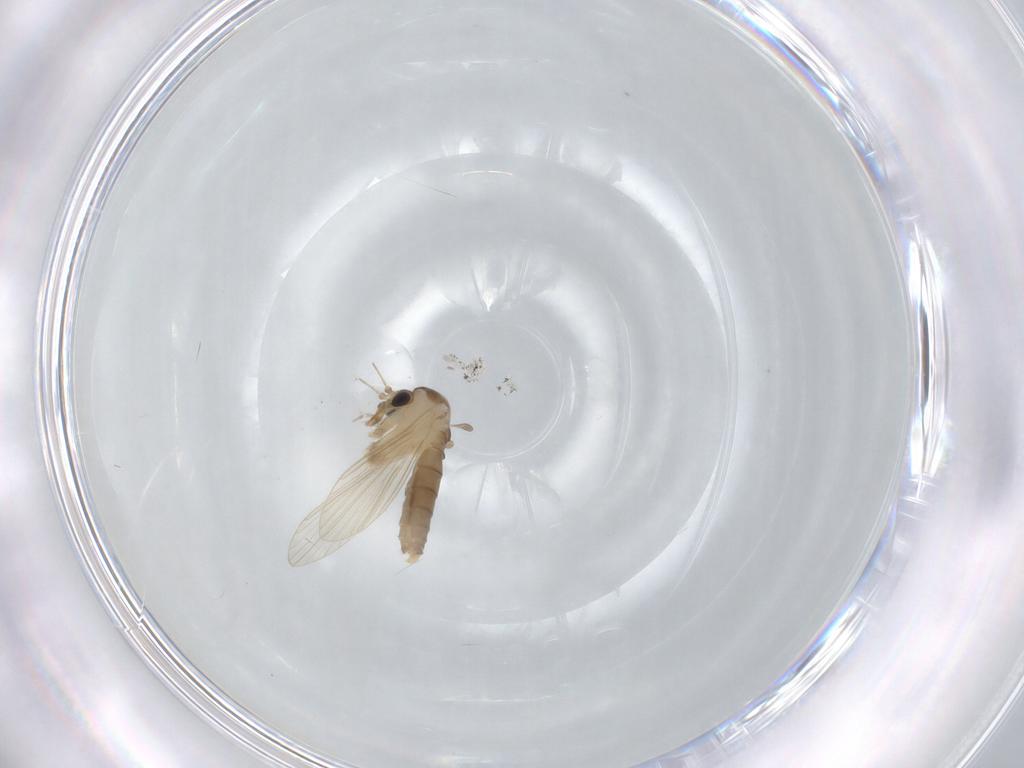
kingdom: Animalia
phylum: Arthropoda
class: Insecta
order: Diptera
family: Psychodidae
